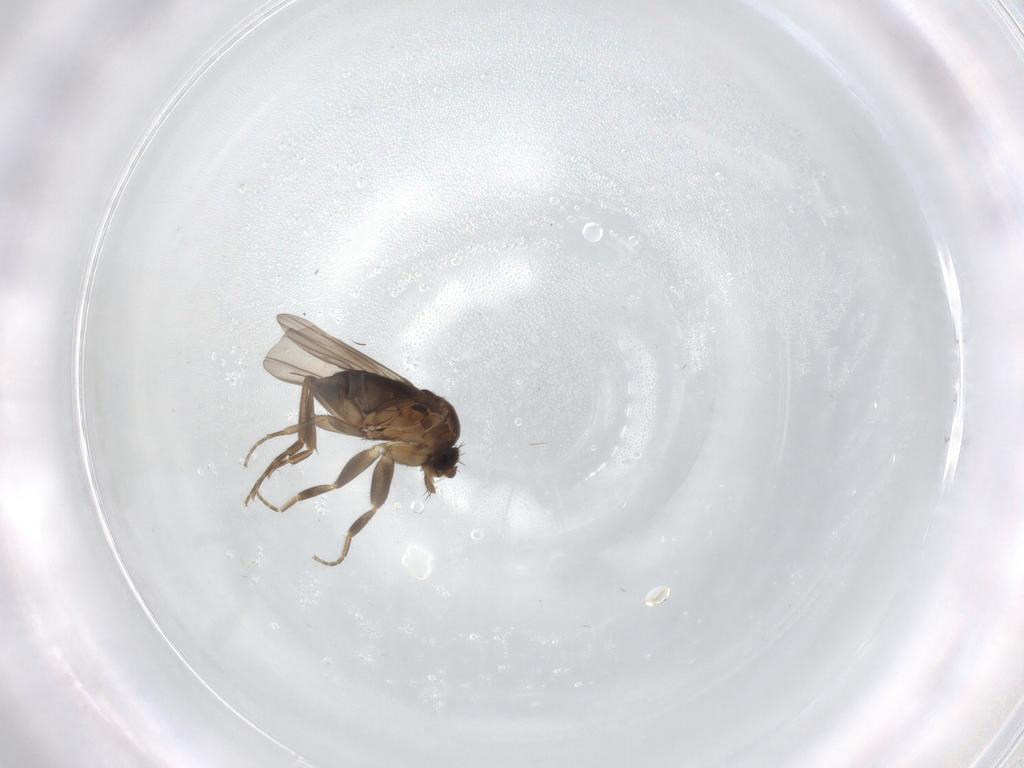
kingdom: Animalia
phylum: Arthropoda
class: Insecta
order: Diptera
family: Phoridae
